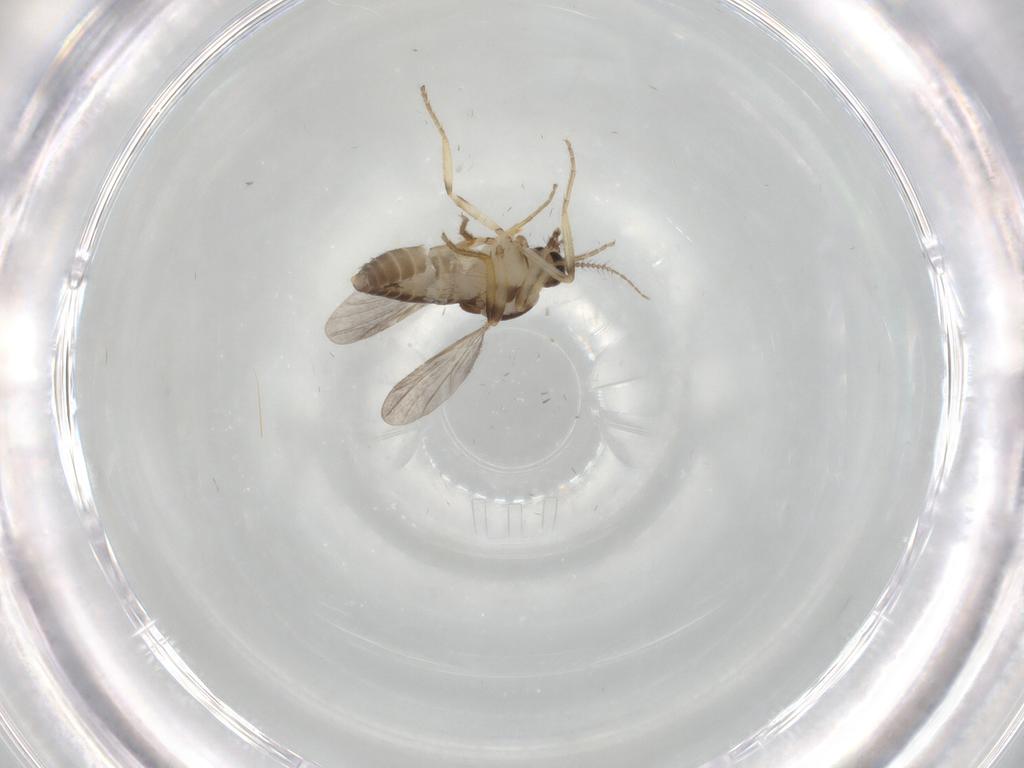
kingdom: Animalia
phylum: Arthropoda
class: Insecta
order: Diptera
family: Ceratopogonidae
